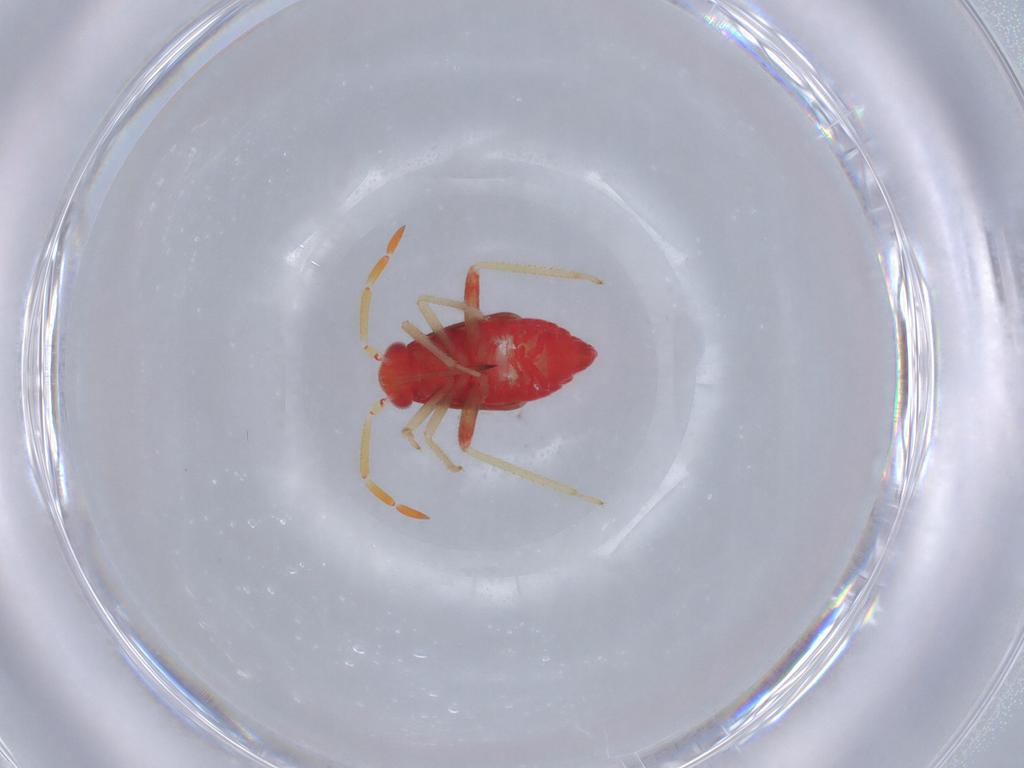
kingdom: Animalia
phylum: Arthropoda
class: Insecta
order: Hemiptera
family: Miridae
